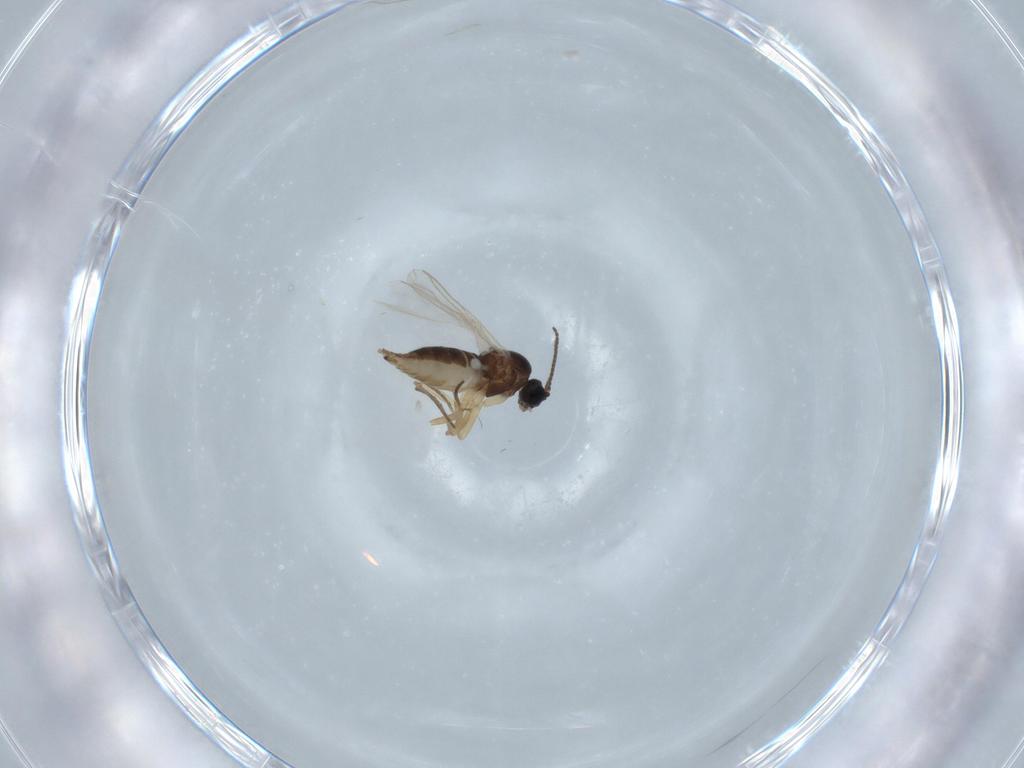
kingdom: Animalia
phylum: Arthropoda
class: Insecta
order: Diptera
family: Sciaridae
